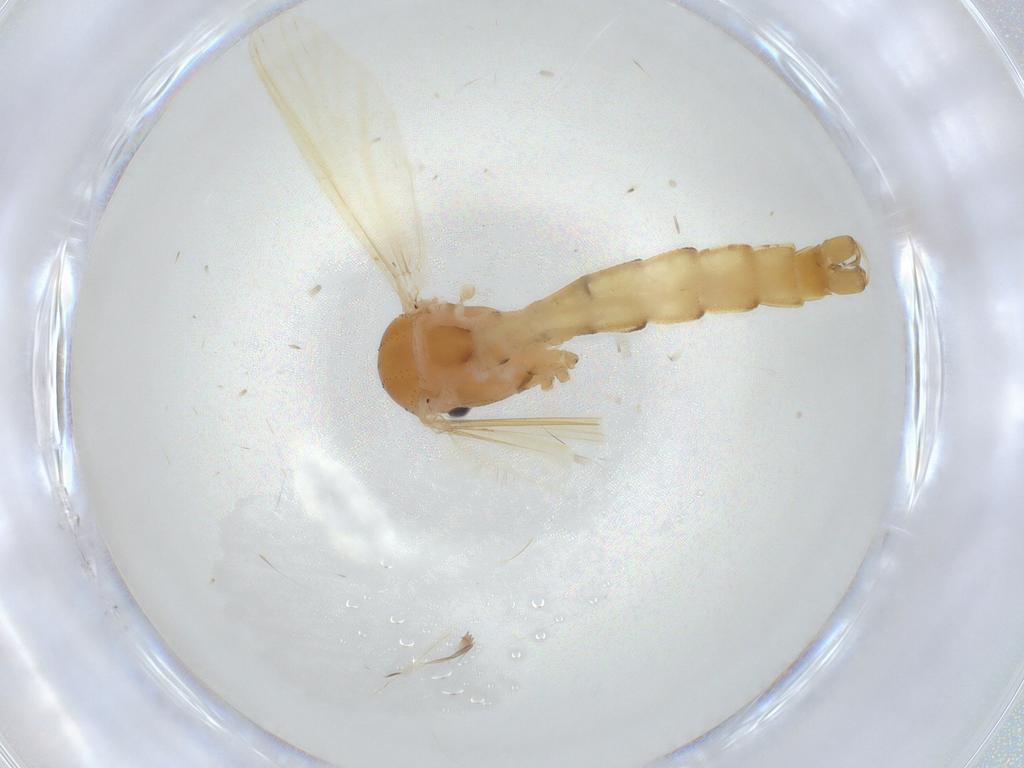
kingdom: Animalia
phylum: Arthropoda
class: Insecta
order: Diptera
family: Culicidae
